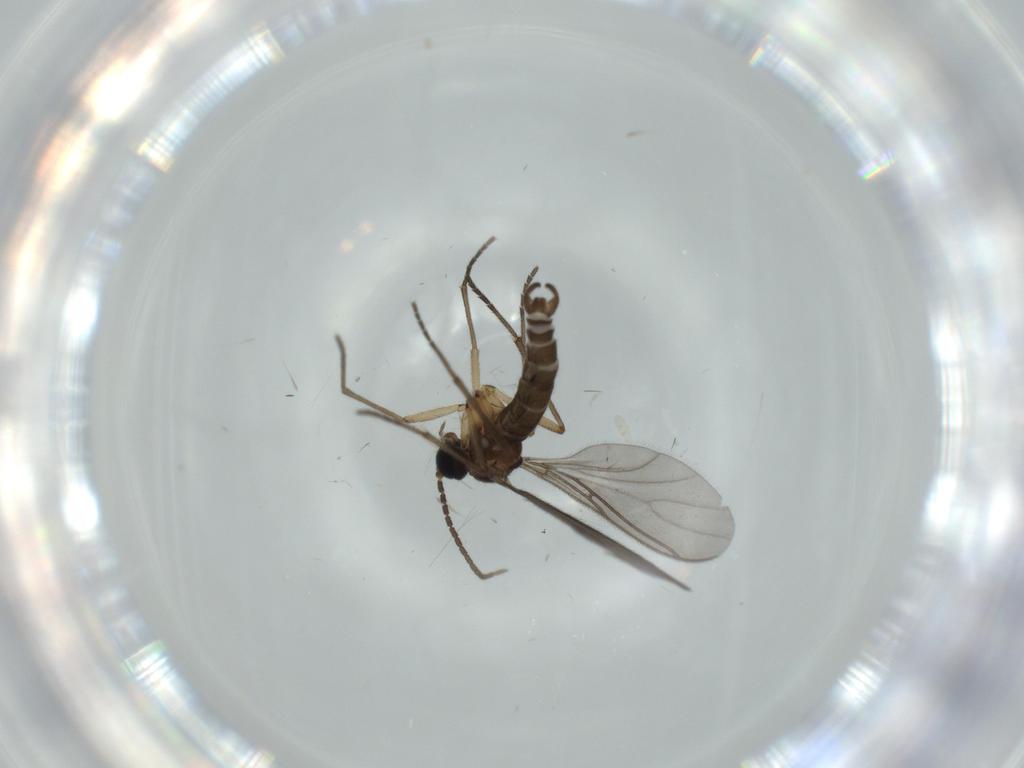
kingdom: Animalia
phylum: Arthropoda
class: Insecta
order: Diptera
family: Sciaridae
